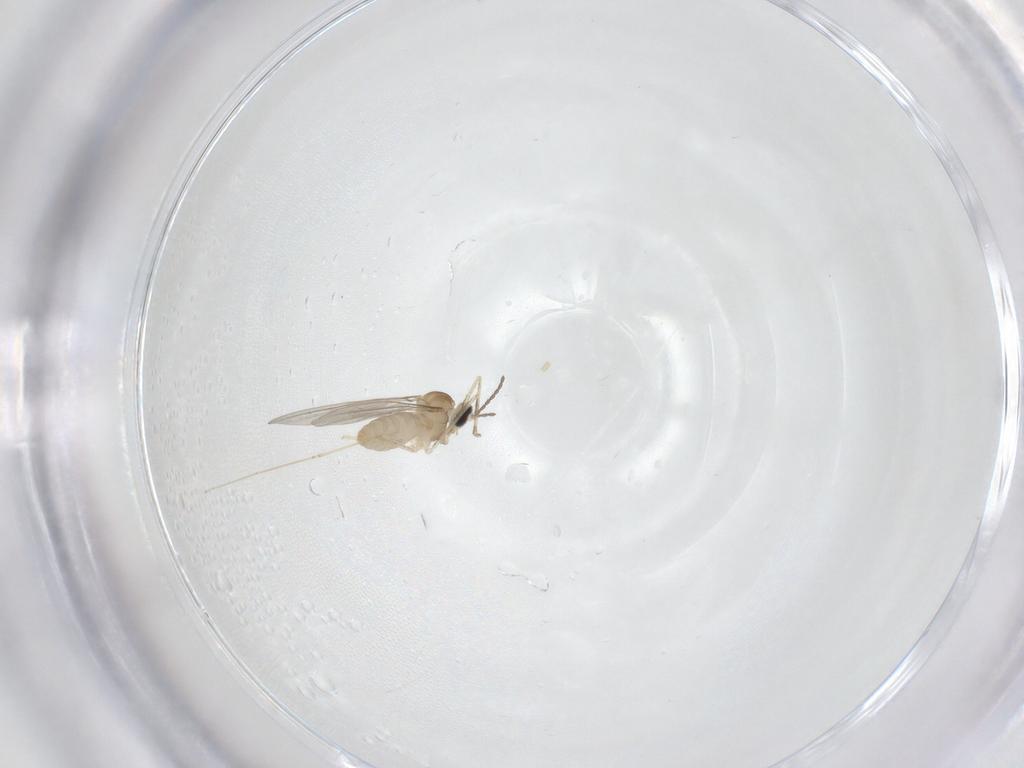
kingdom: Animalia
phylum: Arthropoda
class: Insecta
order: Diptera
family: Cecidomyiidae
